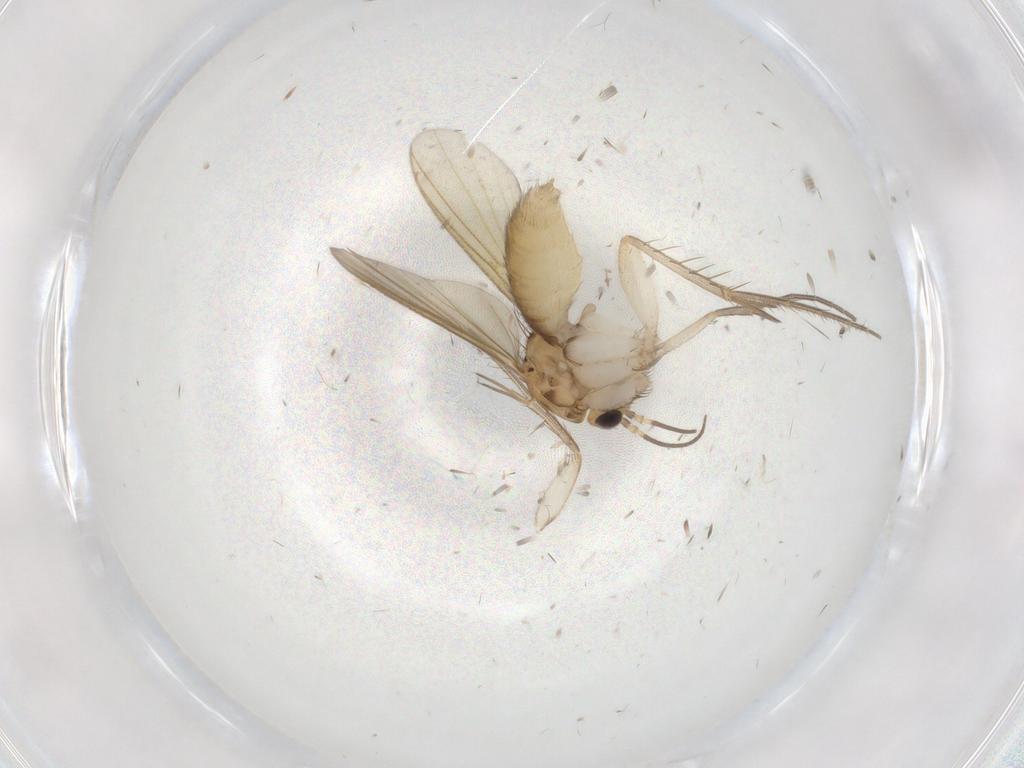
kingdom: Animalia
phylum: Arthropoda
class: Insecta
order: Diptera
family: Mycetophilidae
